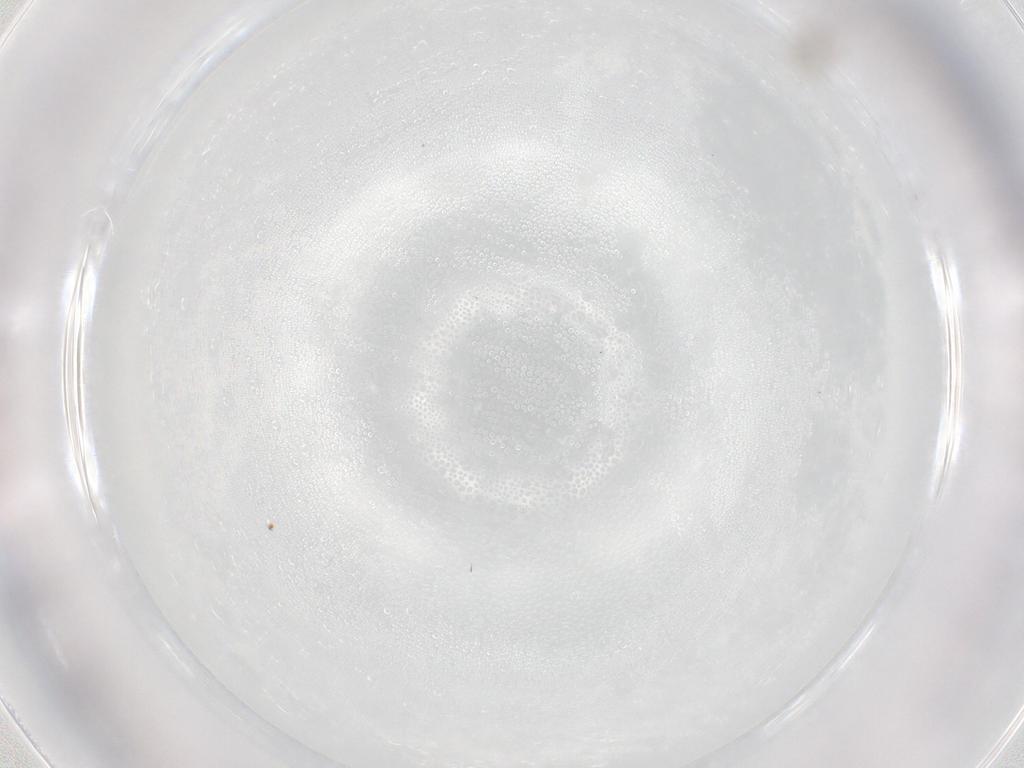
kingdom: Animalia
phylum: Arthropoda
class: Insecta
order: Diptera
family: Cecidomyiidae
